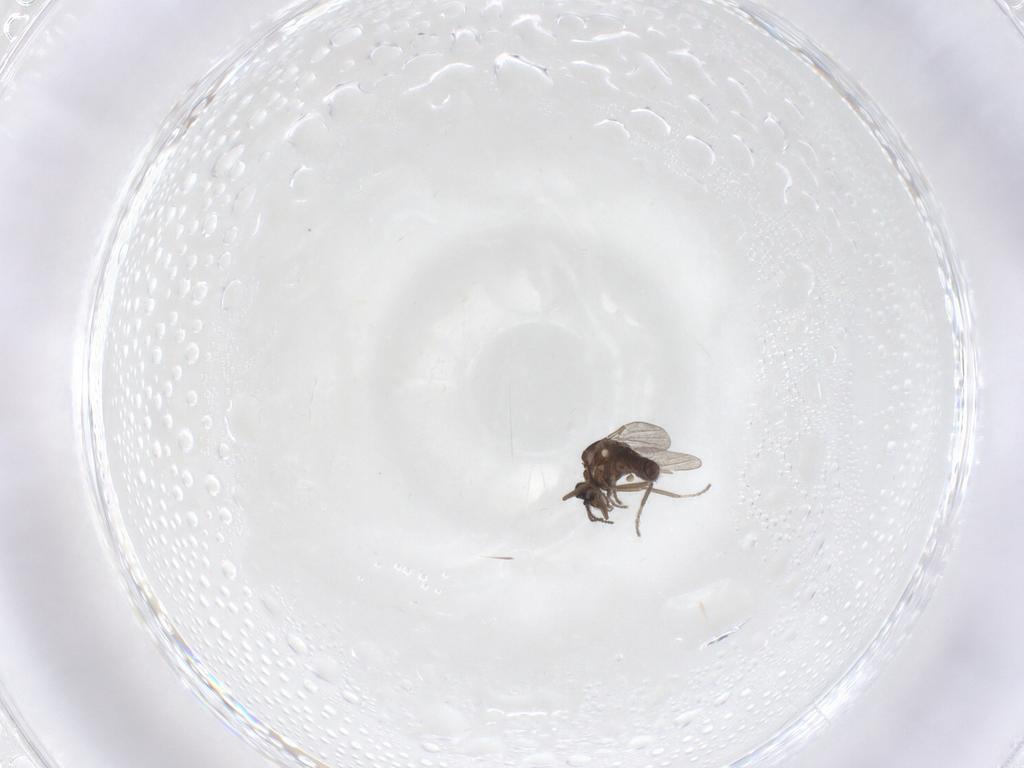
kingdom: Animalia
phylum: Arthropoda
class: Insecta
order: Diptera
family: Ceratopogonidae
